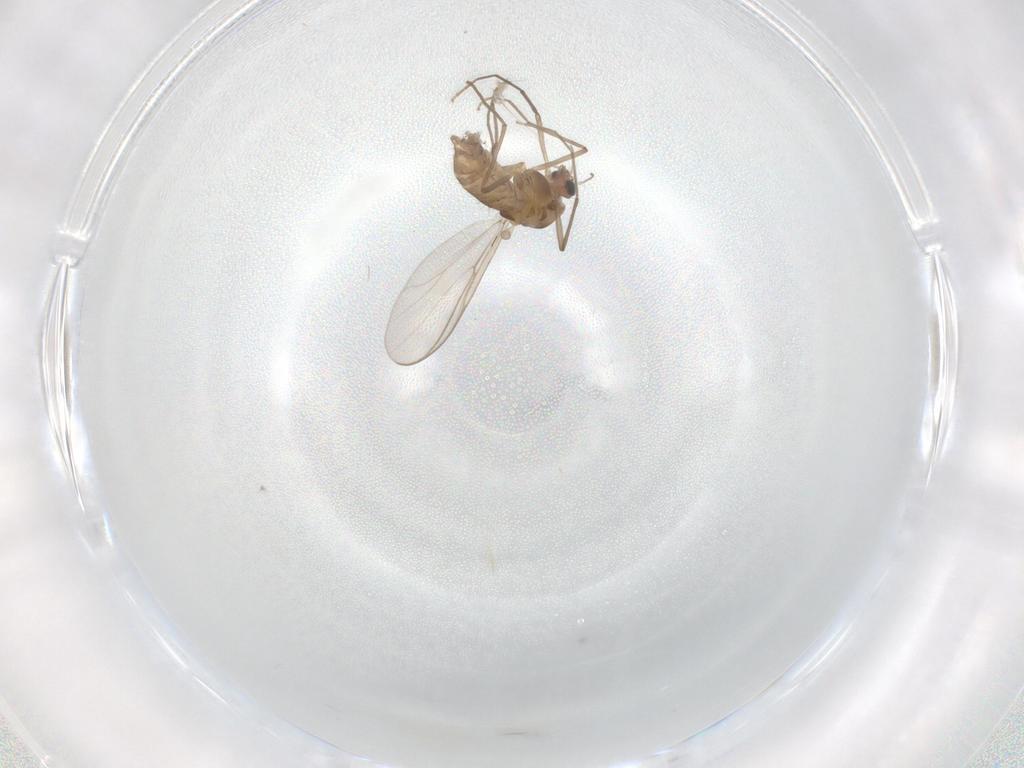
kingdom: Animalia
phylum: Arthropoda
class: Insecta
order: Diptera
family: Chironomidae
